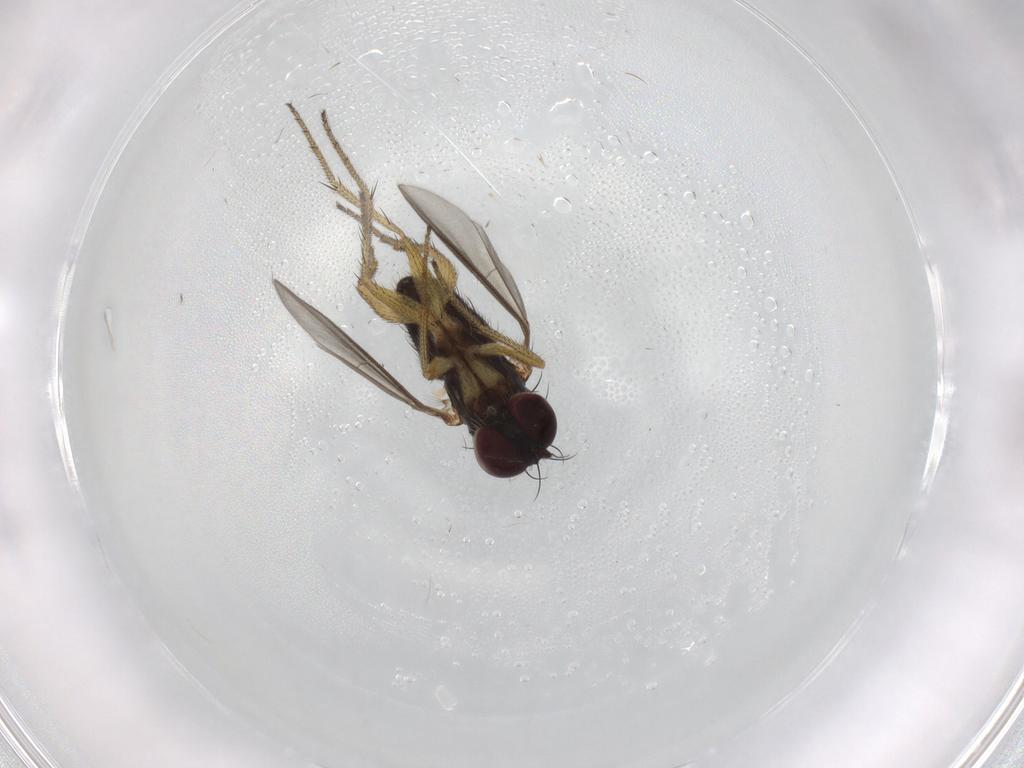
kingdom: Animalia
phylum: Arthropoda
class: Insecta
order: Diptera
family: Dolichopodidae
